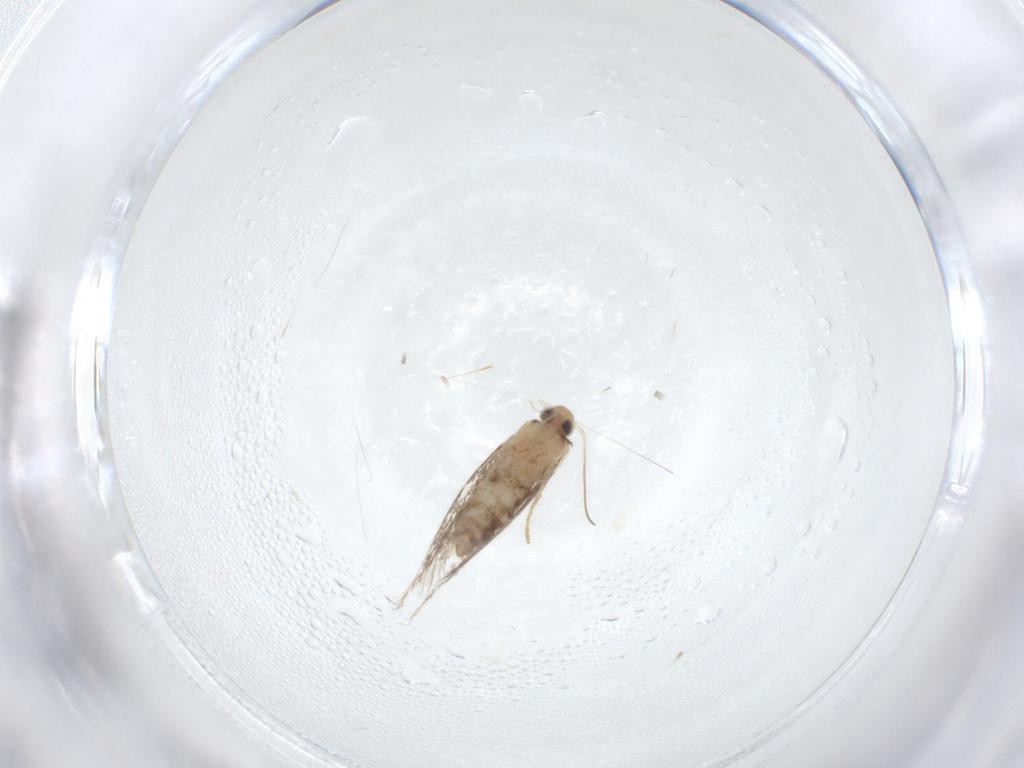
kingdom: Animalia
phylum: Arthropoda
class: Insecta
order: Lepidoptera
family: Tortricidae
